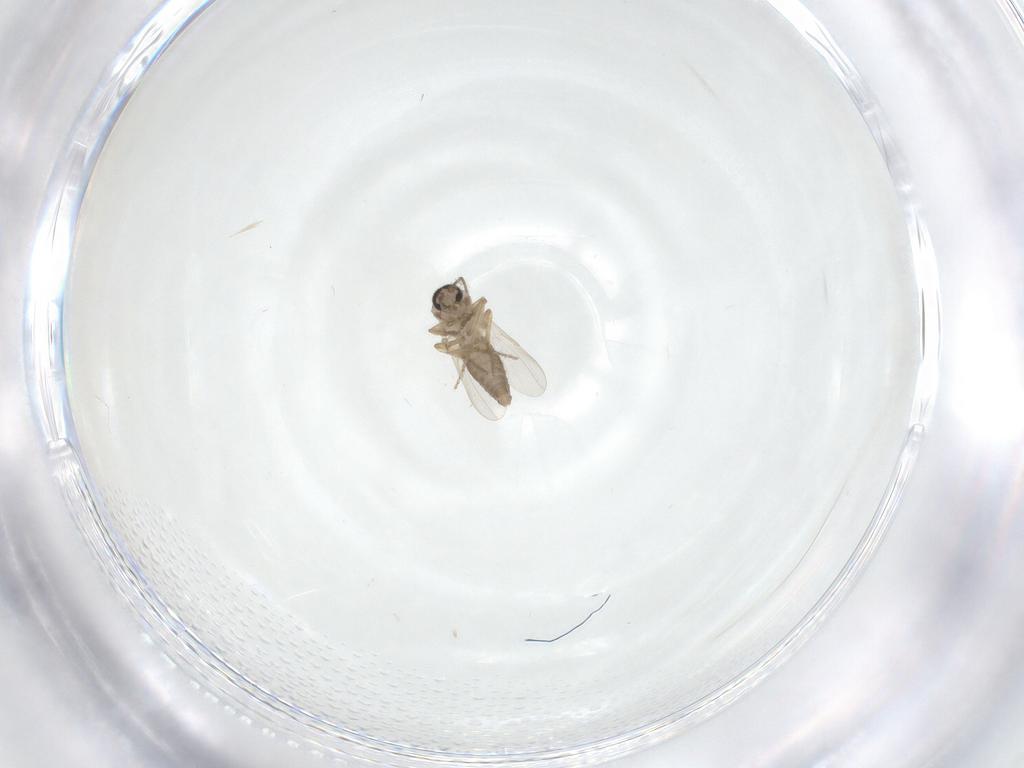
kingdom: Animalia
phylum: Arthropoda
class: Insecta
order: Diptera
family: Ceratopogonidae
